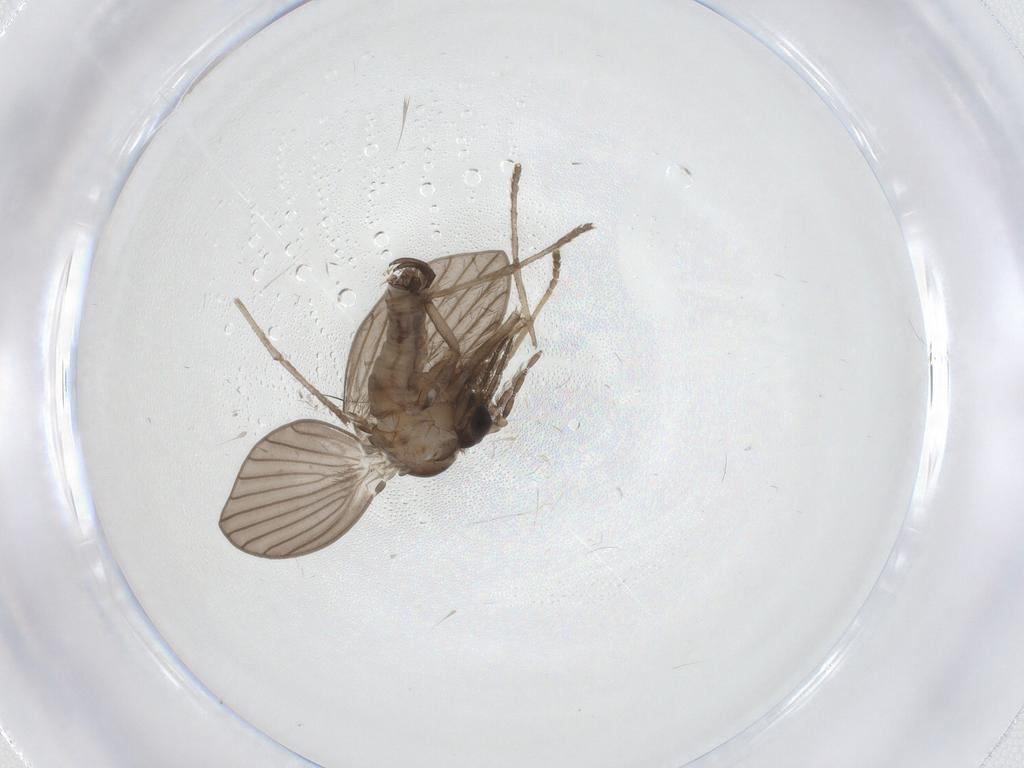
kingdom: Animalia
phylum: Arthropoda
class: Insecta
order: Diptera
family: Psychodidae
